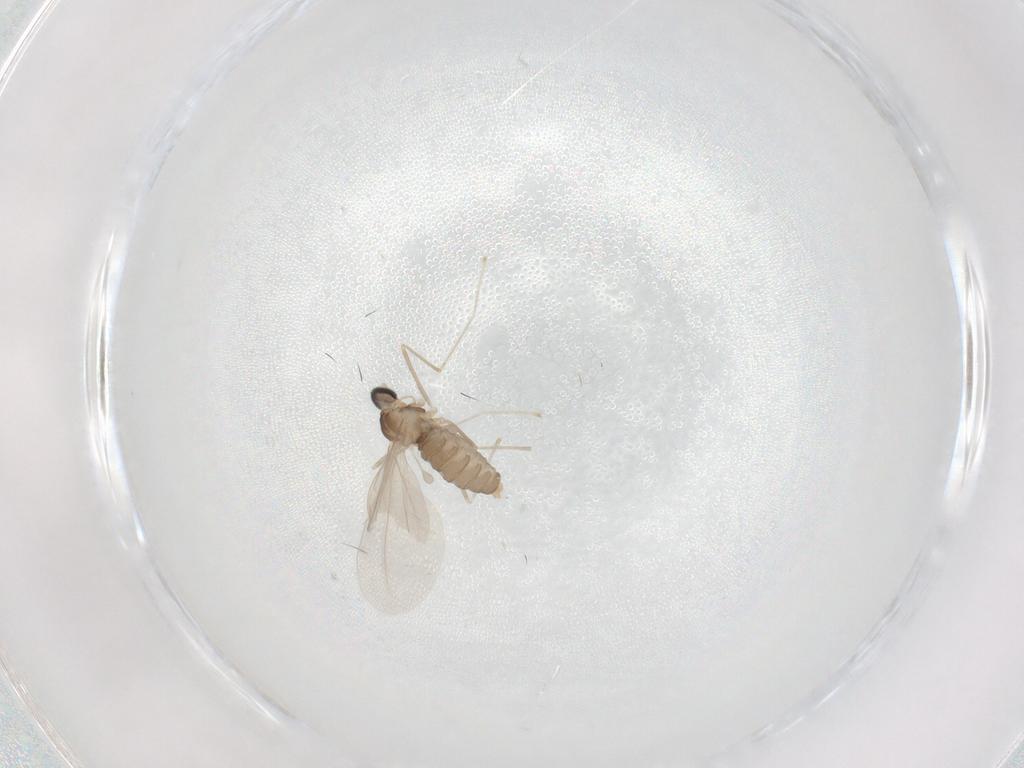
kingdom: Animalia
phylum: Arthropoda
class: Insecta
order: Diptera
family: Cecidomyiidae
